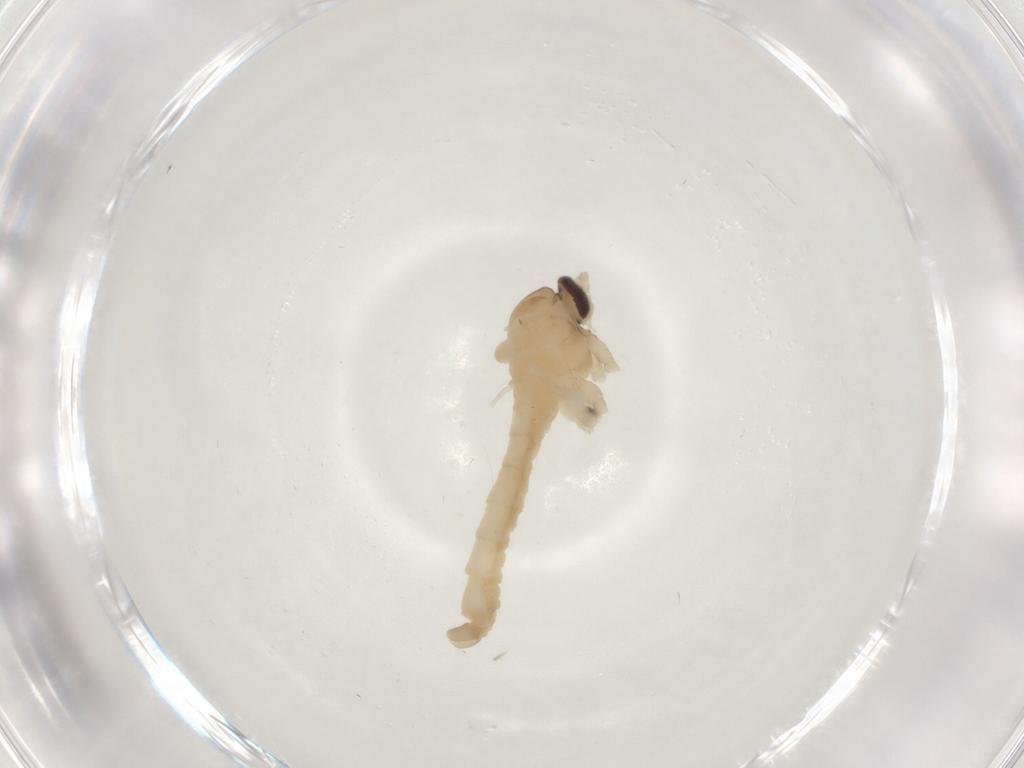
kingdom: Animalia
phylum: Arthropoda
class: Insecta
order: Diptera
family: Cecidomyiidae
